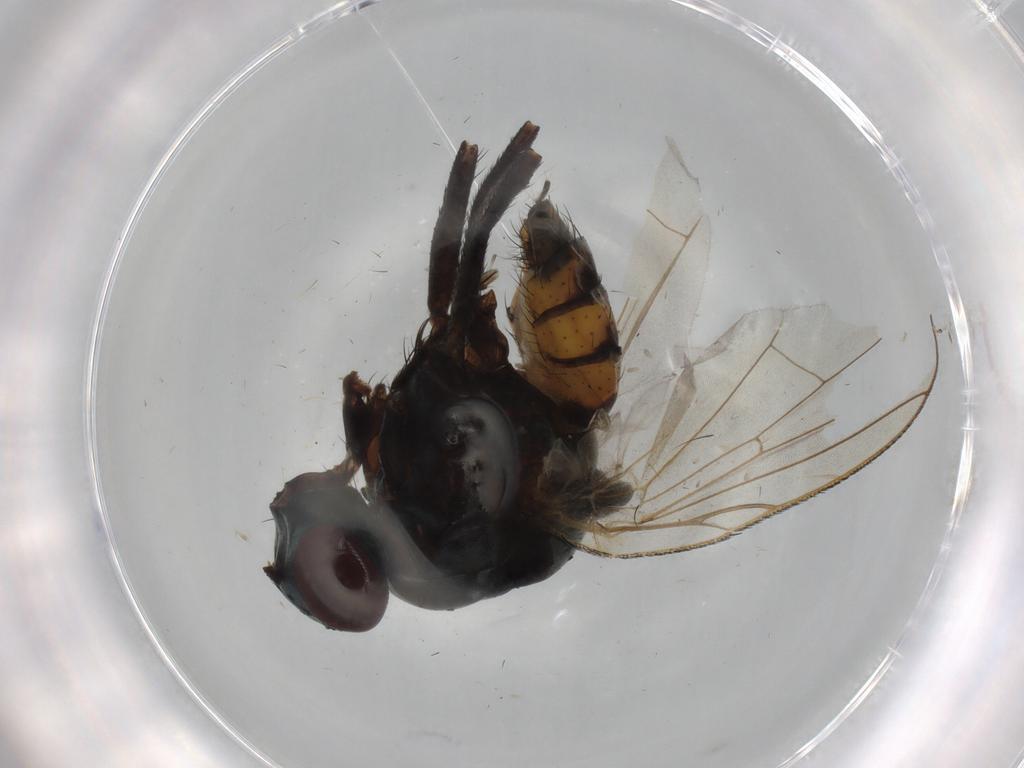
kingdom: Animalia
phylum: Arthropoda
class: Insecta
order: Diptera
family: Anthomyiidae
